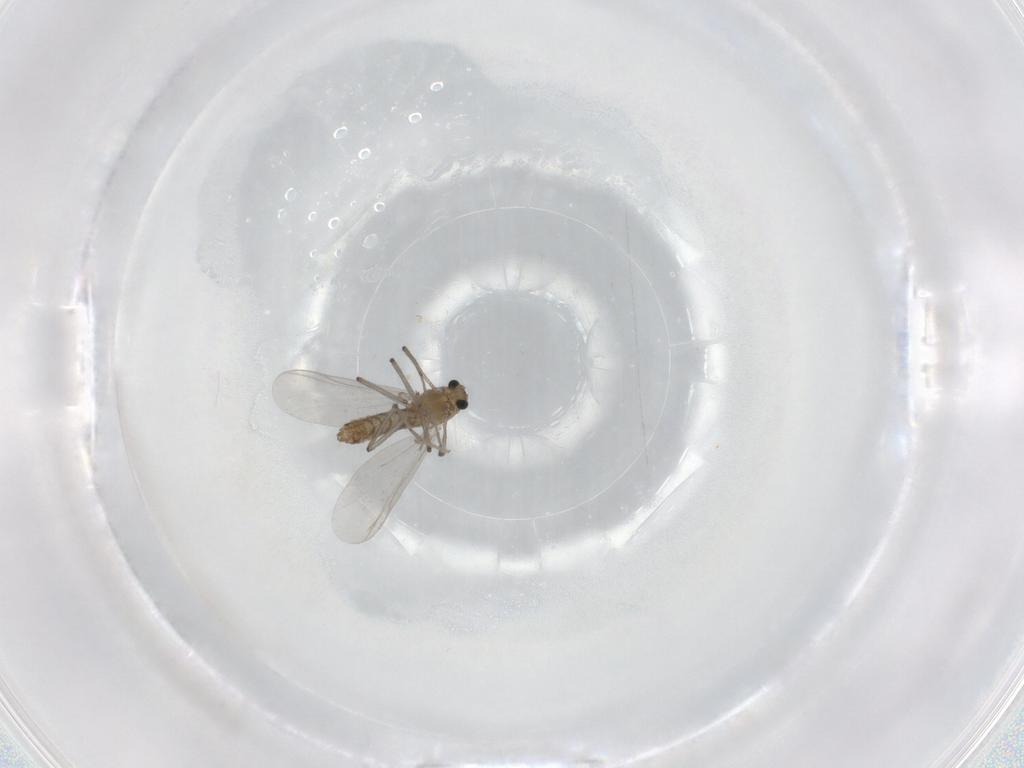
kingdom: Animalia
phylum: Arthropoda
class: Insecta
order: Diptera
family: Chironomidae
